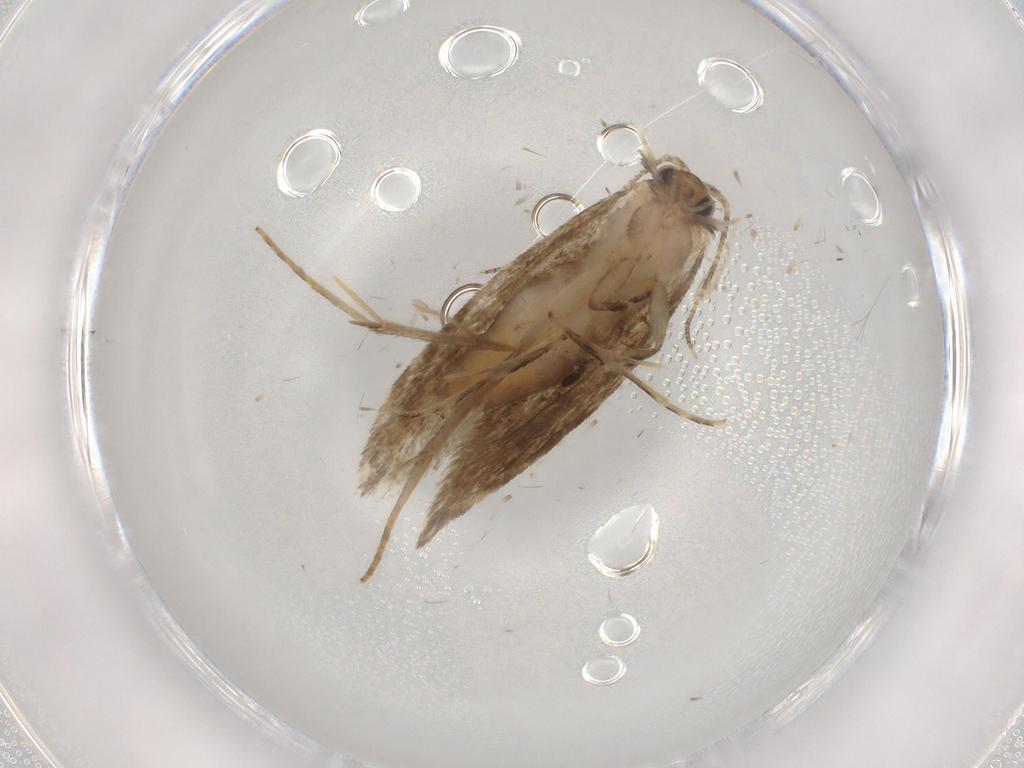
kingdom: Animalia
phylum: Arthropoda
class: Insecta
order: Lepidoptera
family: Tineidae
